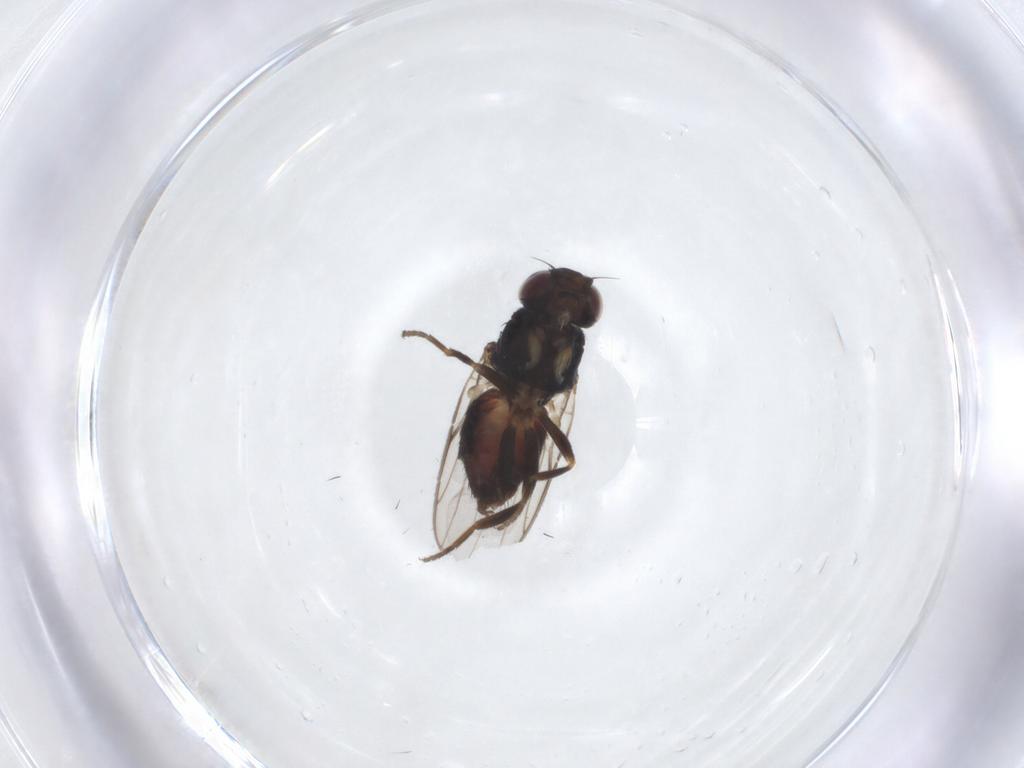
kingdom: Animalia
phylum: Arthropoda
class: Insecta
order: Diptera
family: Chloropidae
